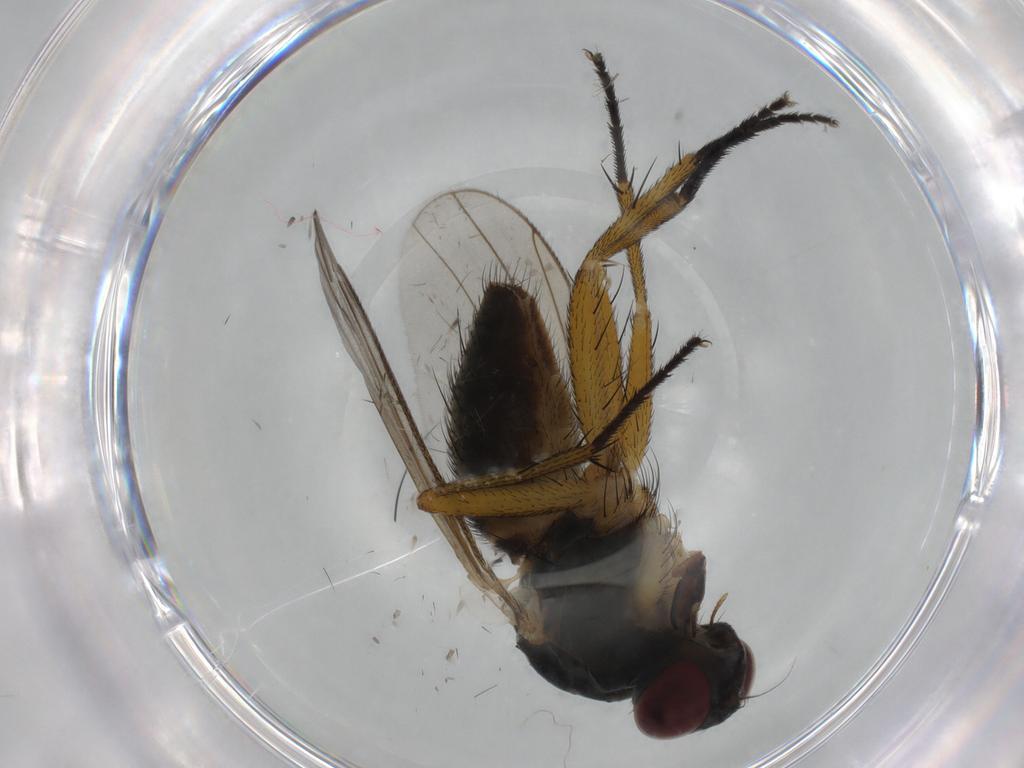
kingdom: Animalia
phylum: Arthropoda
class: Insecta
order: Diptera
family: Muscidae
